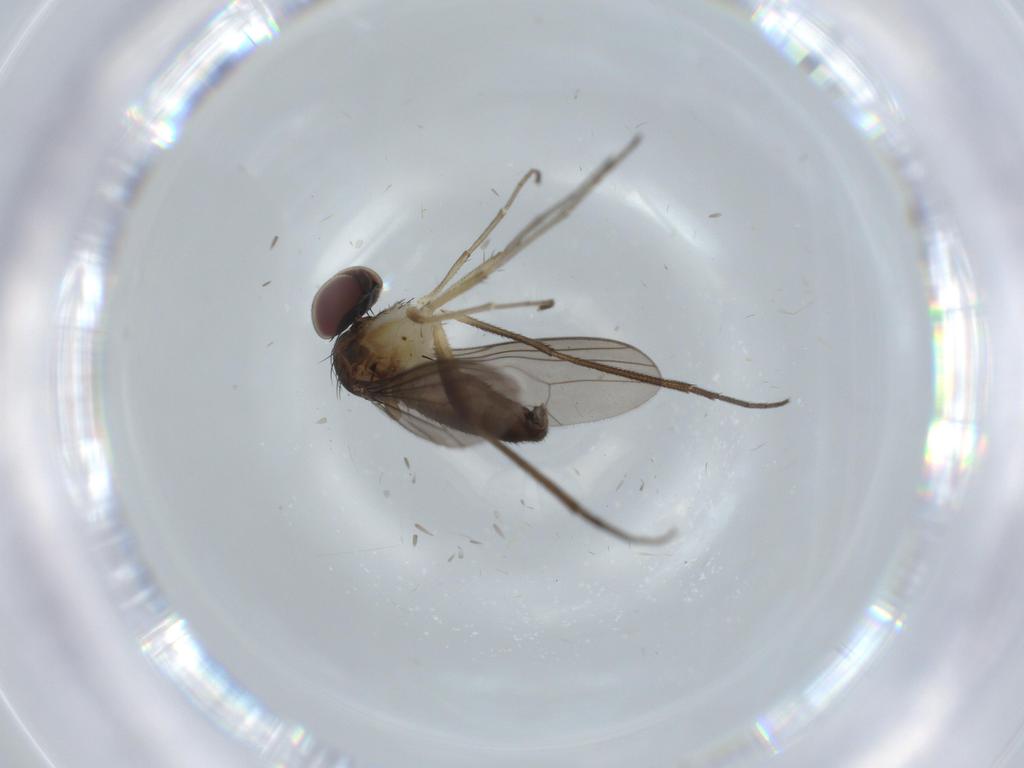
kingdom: Animalia
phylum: Arthropoda
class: Insecta
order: Diptera
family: Dolichopodidae
